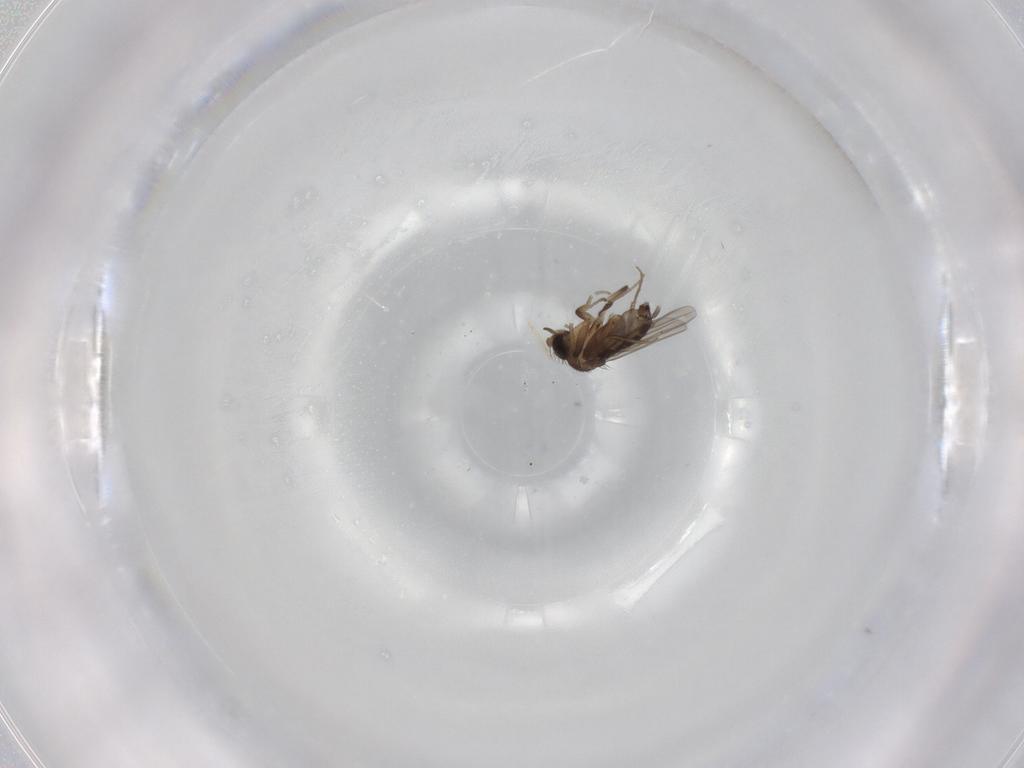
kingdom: Animalia
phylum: Arthropoda
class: Insecta
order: Diptera
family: Phoridae
